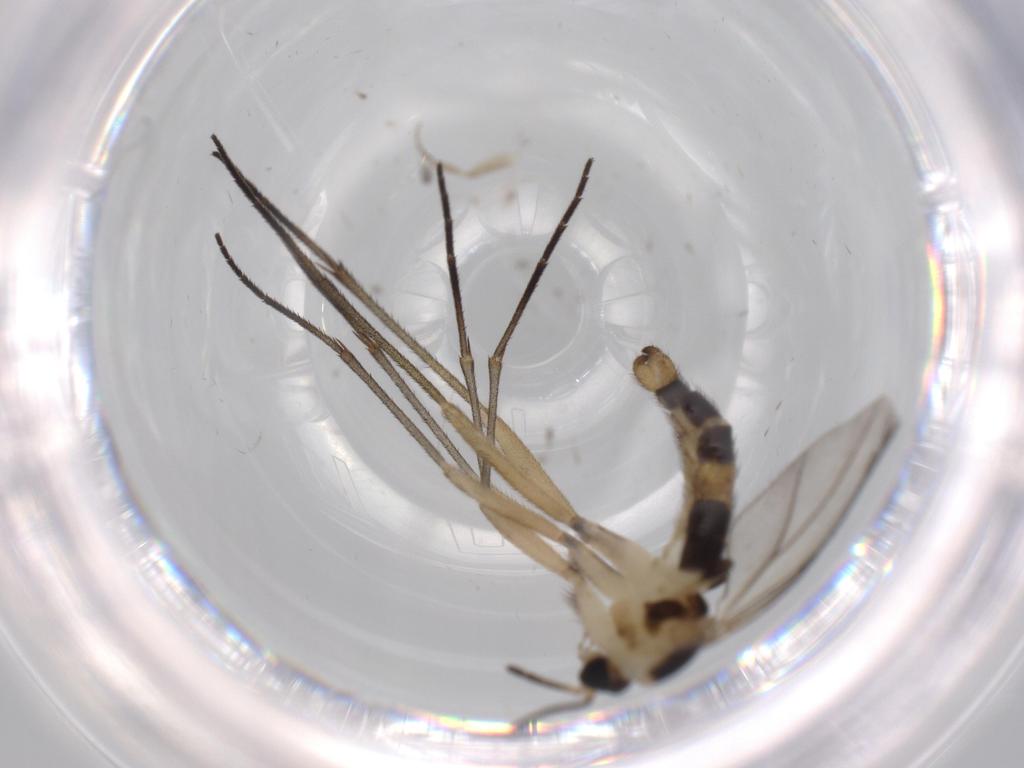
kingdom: Animalia
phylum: Arthropoda
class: Insecta
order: Diptera
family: Sciaridae
